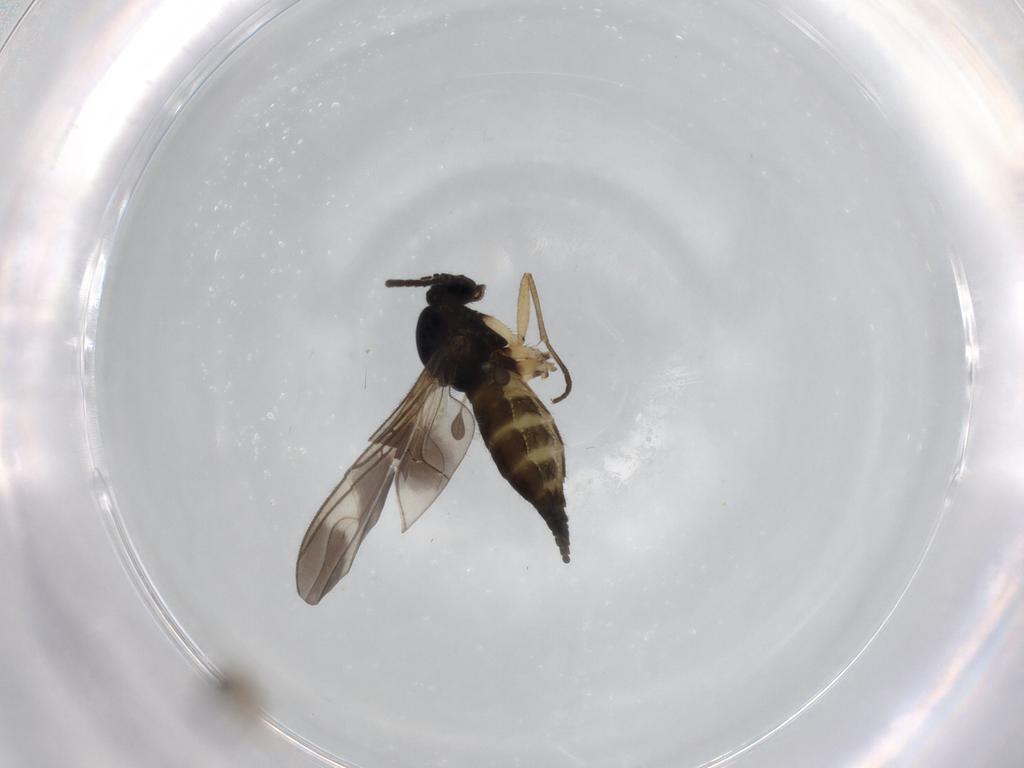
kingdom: Animalia
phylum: Arthropoda
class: Insecta
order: Diptera
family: Sciaridae
